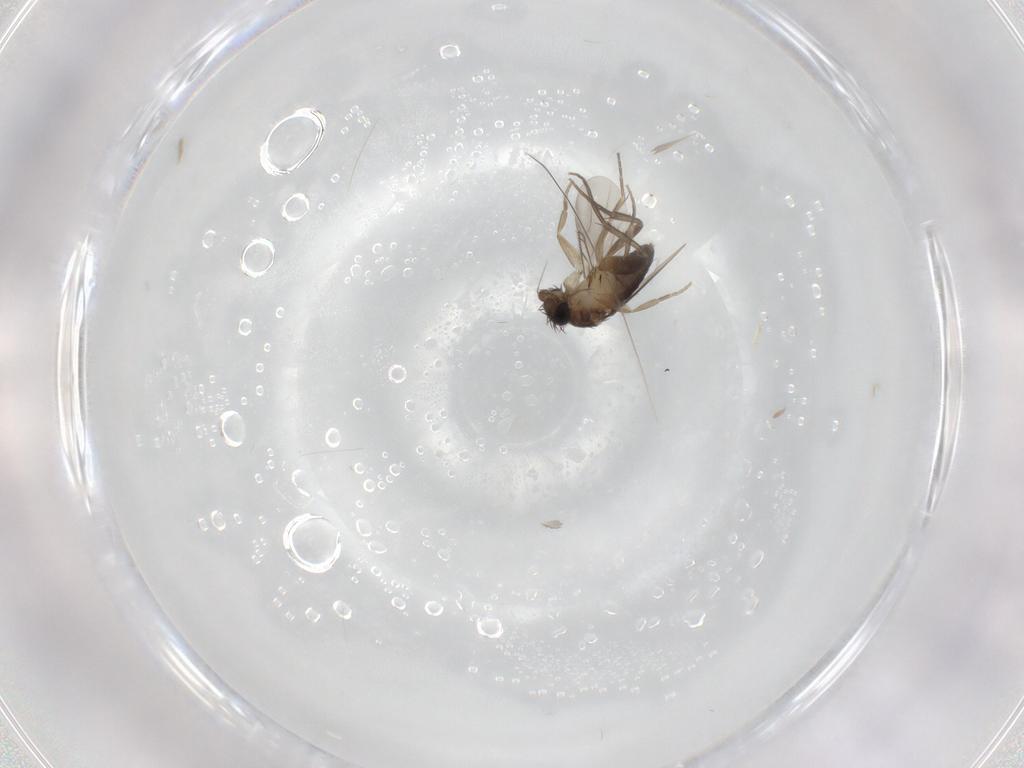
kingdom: Animalia
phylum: Arthropoda
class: Insecta
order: Diptera
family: Phoridae
